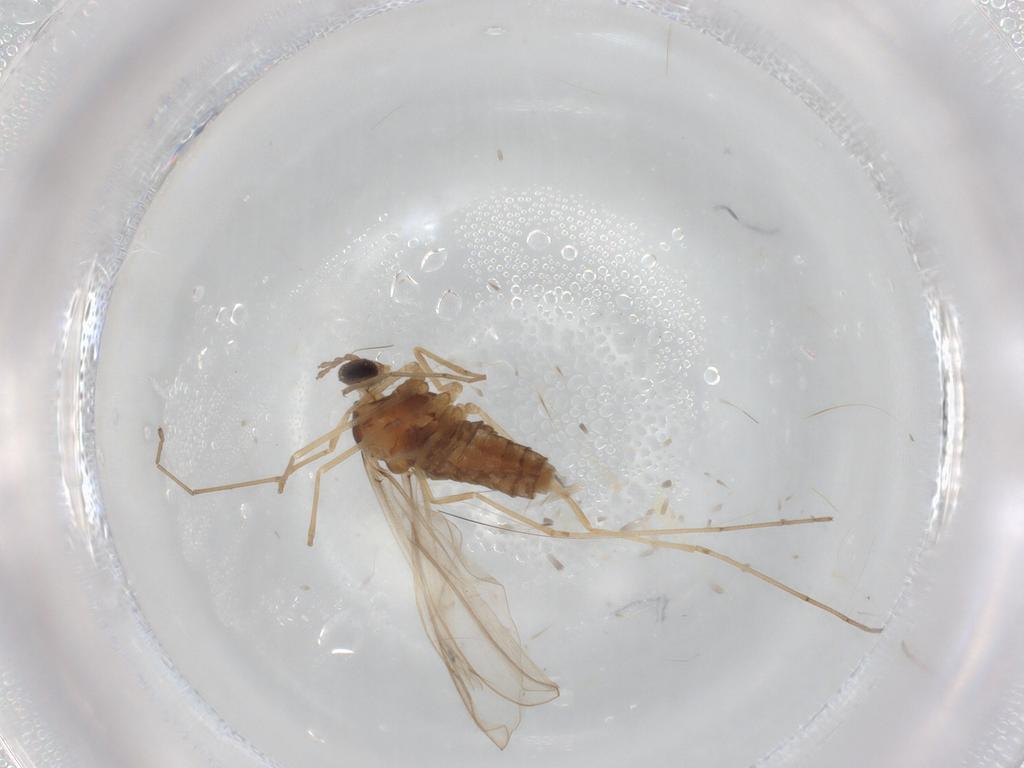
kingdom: Animalia
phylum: Arthropoda
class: Insecta
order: Diptera
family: Cecidomyiidae
